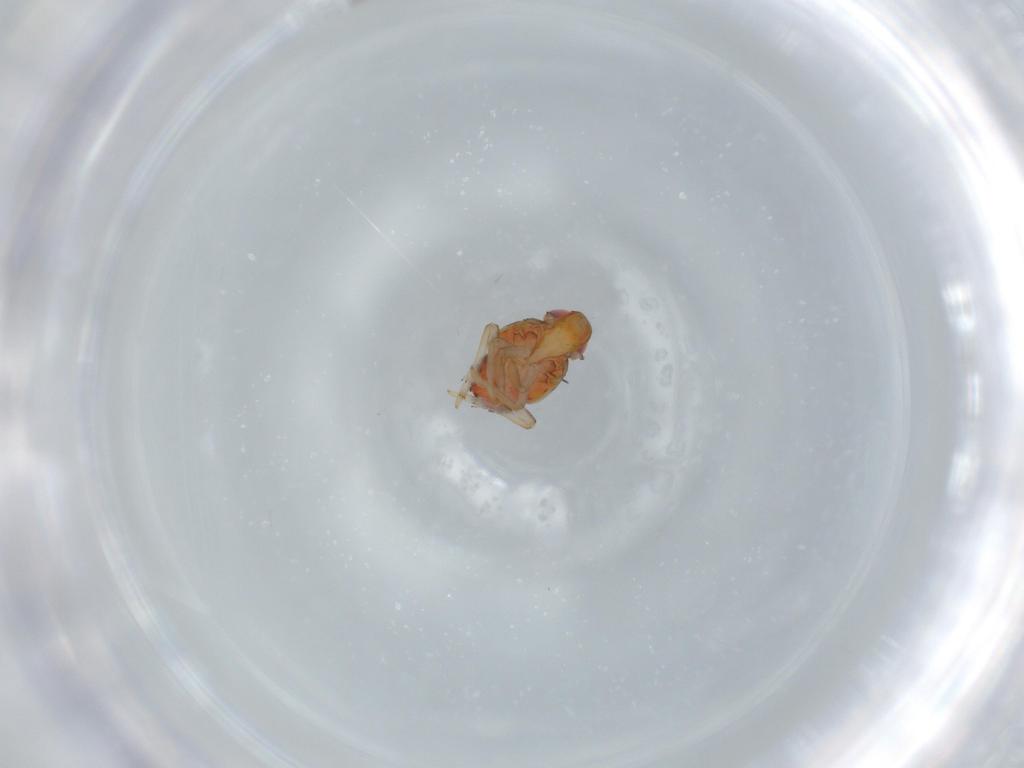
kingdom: Animalia
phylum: Arthropoda
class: Insecta
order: Hemiptera
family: Issidae
